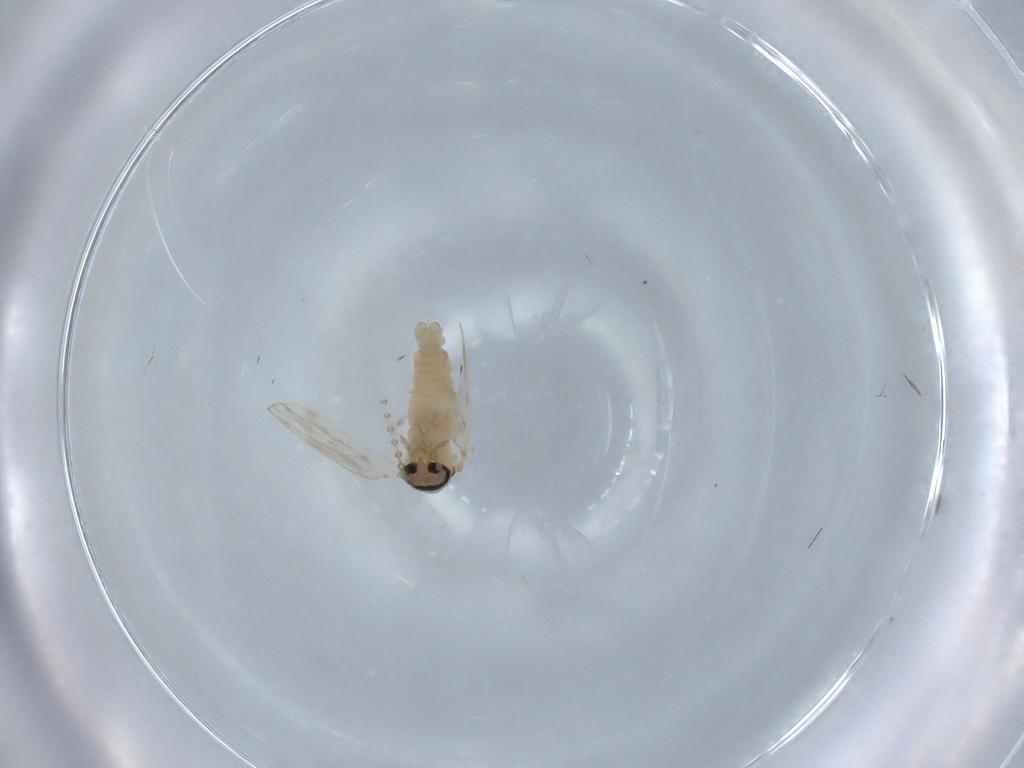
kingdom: Animalia
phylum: Arthropoda
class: Insecta
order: Diptera
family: Psychodidae
